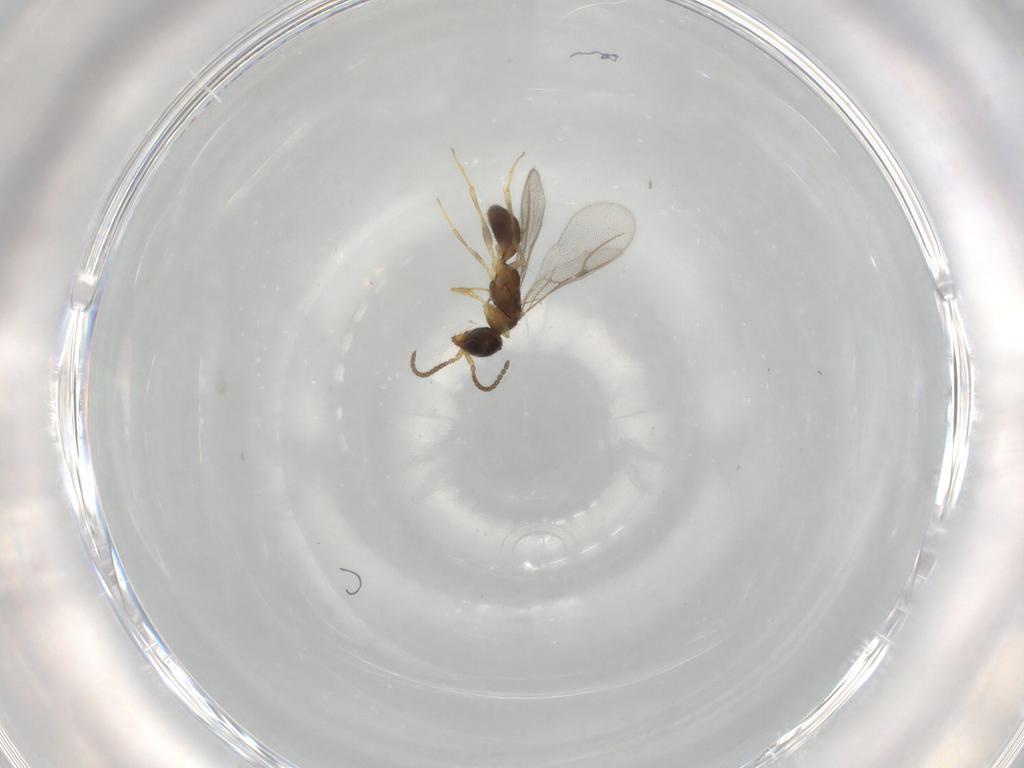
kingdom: Animalia
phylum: Arthropoda
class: Insecta
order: Hymenoptera
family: Bethylidae
